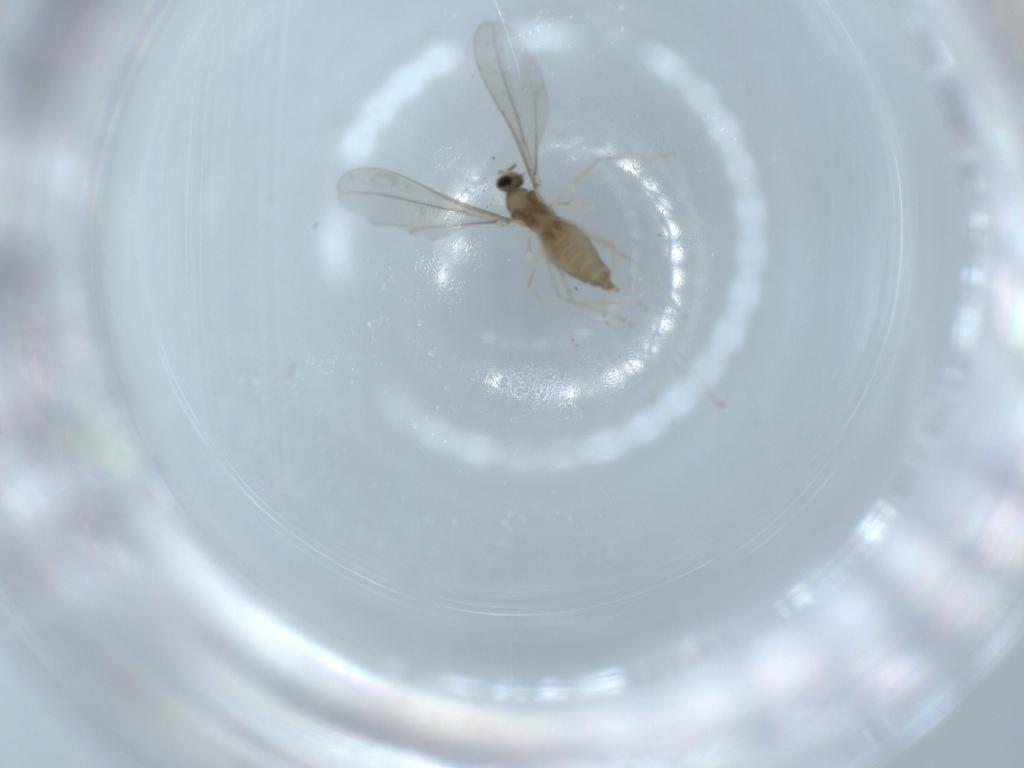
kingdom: Animalia
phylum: Arthropoda
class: Insecta
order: Diptera
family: Cecidomyiidae
